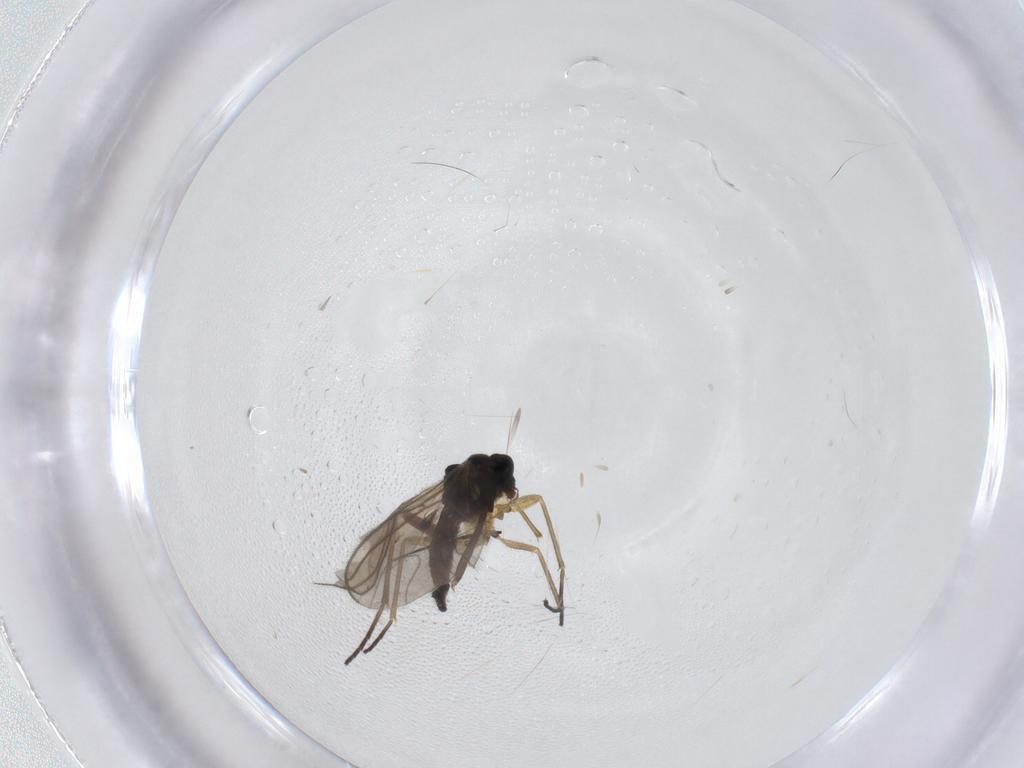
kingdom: Animalia
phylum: Arthropoda
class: Insecta
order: Diptera
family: Sciaridae
